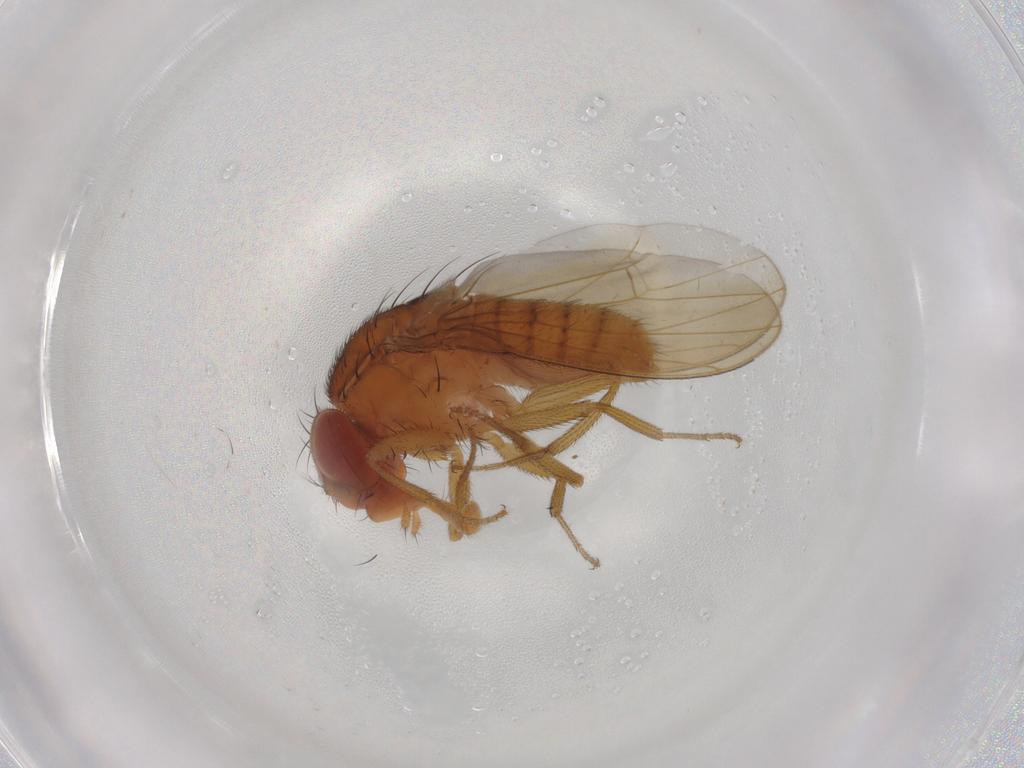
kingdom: Animalia
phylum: Arthropoda
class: Insecta
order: Diptera
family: Drosophilidae
